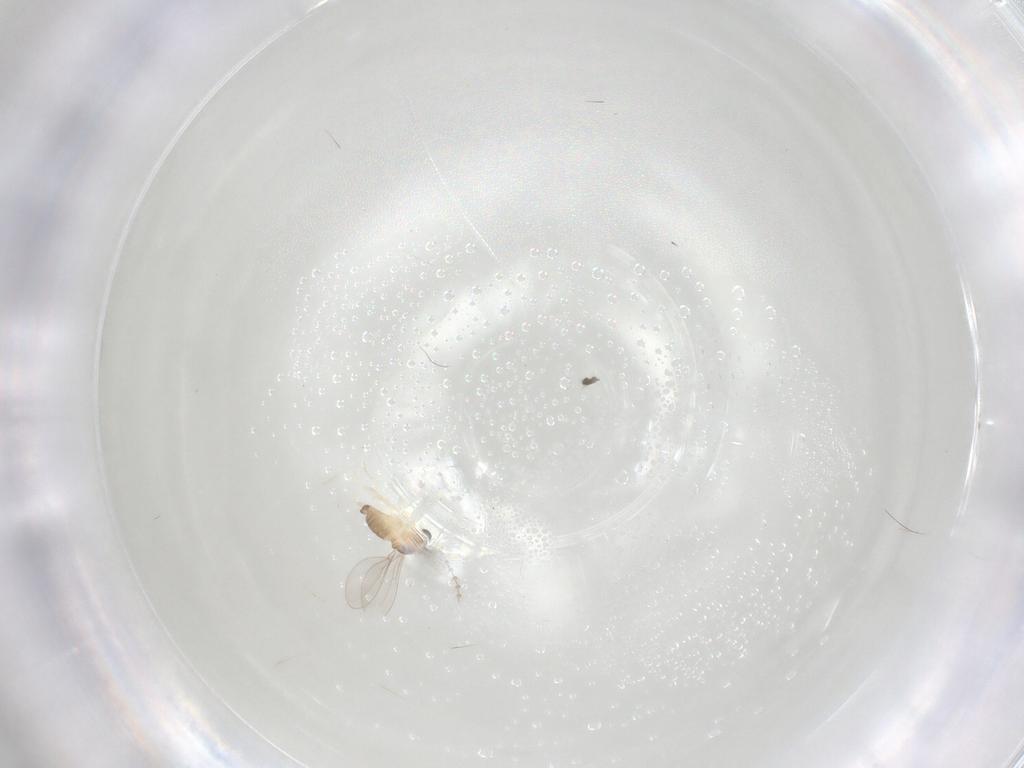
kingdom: Animalia
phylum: Arthropoda
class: Insecta
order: Diptera
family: Cecidomyiidae
